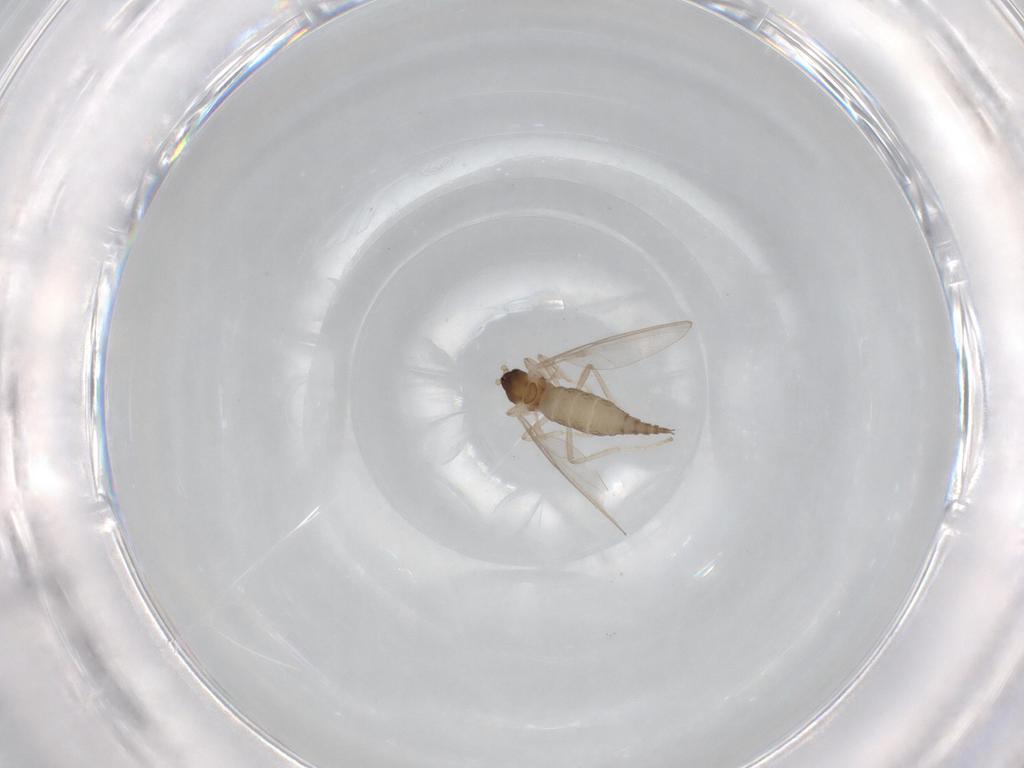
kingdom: Animalia
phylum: Arthropoda
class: Insecta
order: Diptera
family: Cecidomyiidae
